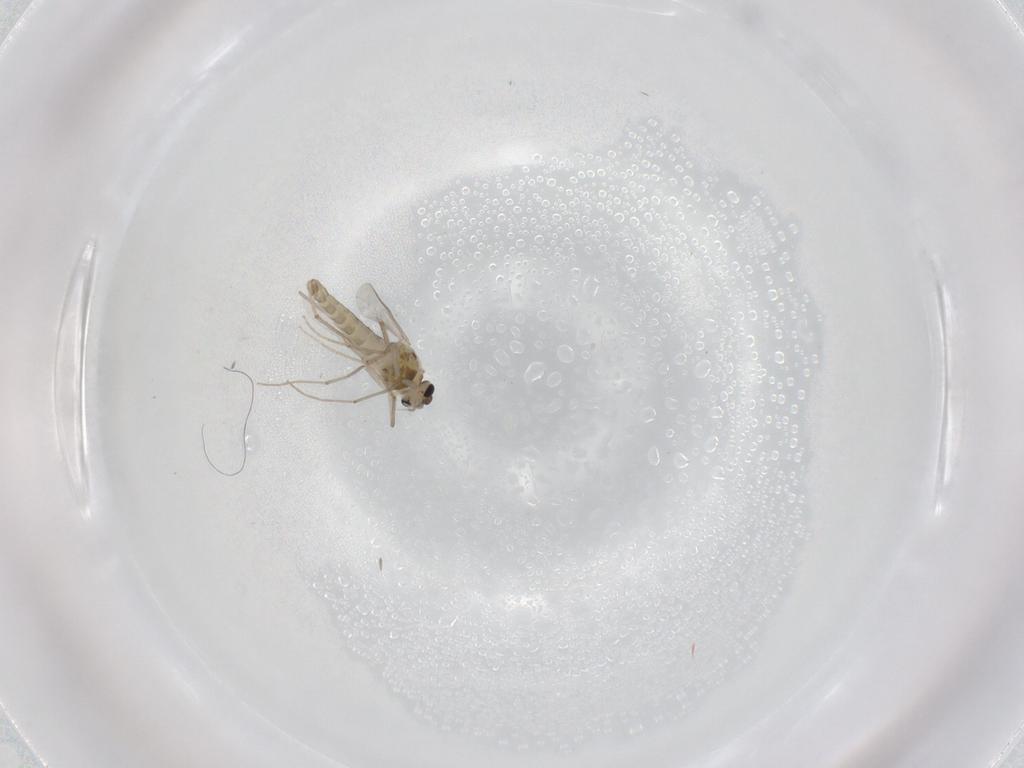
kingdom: Animalia
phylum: Arthropoda
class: Insecta
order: Diptera
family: Chironomidae
